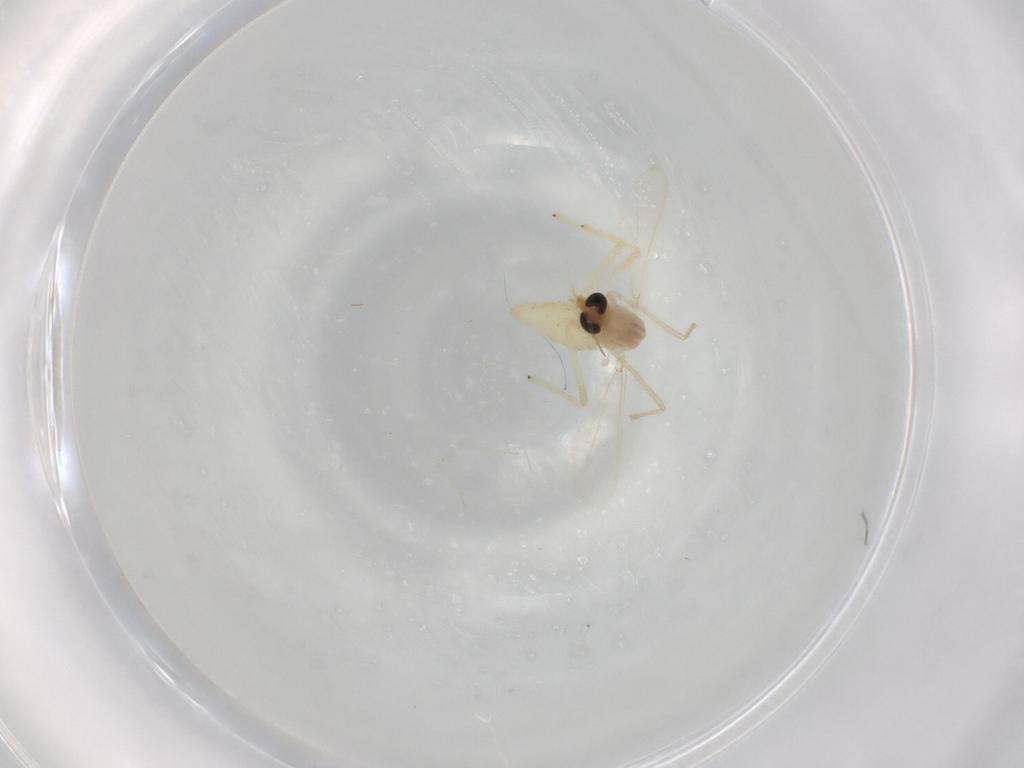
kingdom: Animalia
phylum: Arthropoda
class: Insecta
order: Diptera
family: Chironomidae
